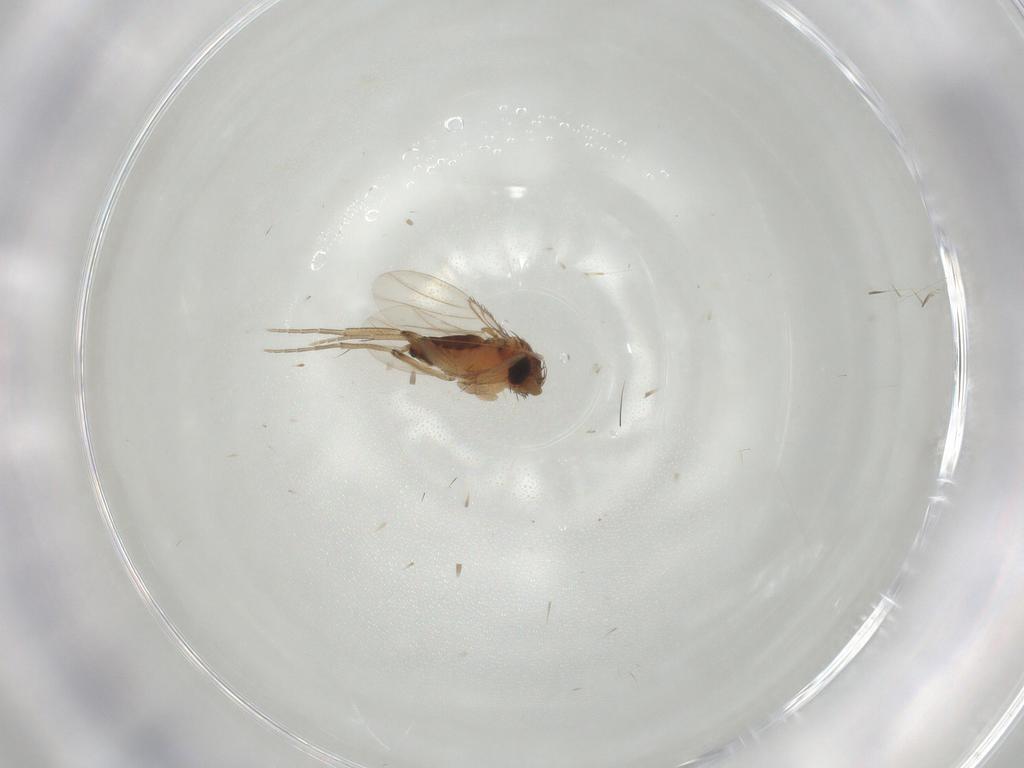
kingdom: Animalia
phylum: Arthropoda
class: Insecta
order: Diptera
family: Phoridae
